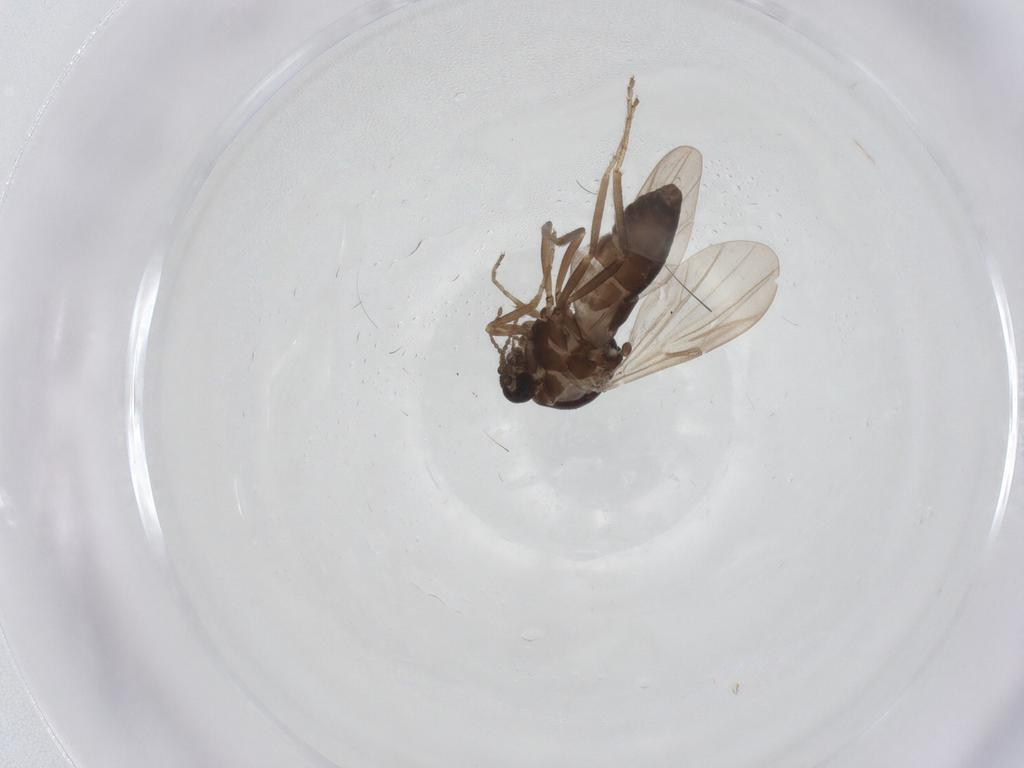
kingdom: Animalia
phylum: Arthropoda
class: Insecta
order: Diptera
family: Ceratopogonidae
